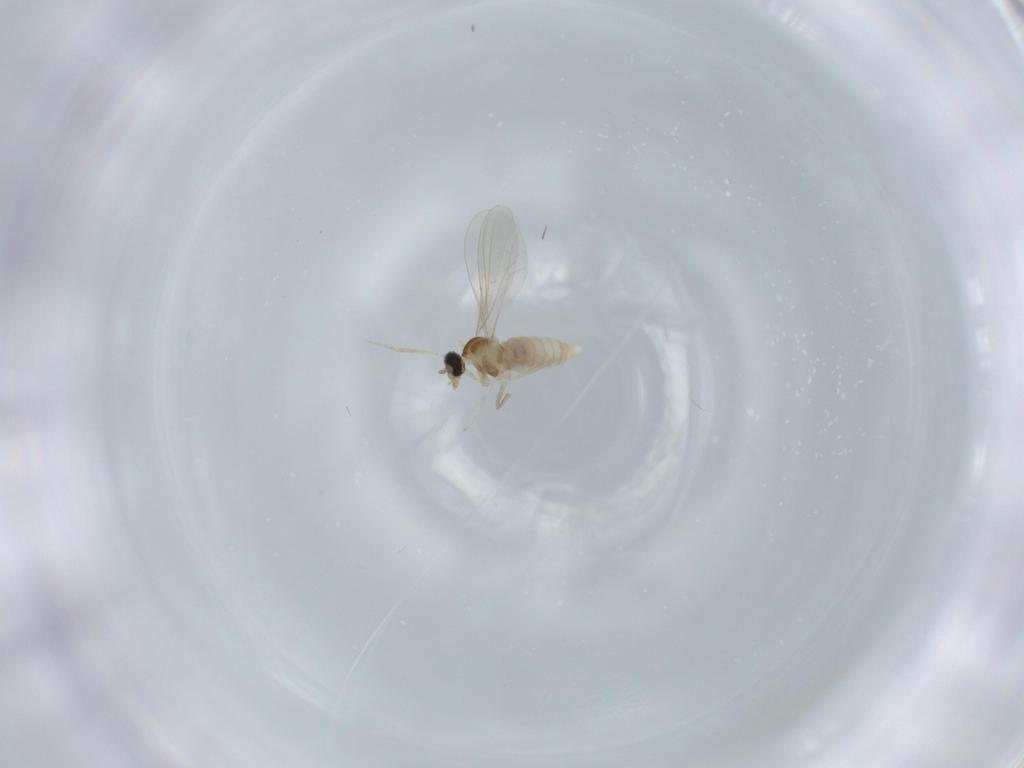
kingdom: Animalia
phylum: Arthropoda
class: Insecta
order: Diptera
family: Cecidomyiidae
